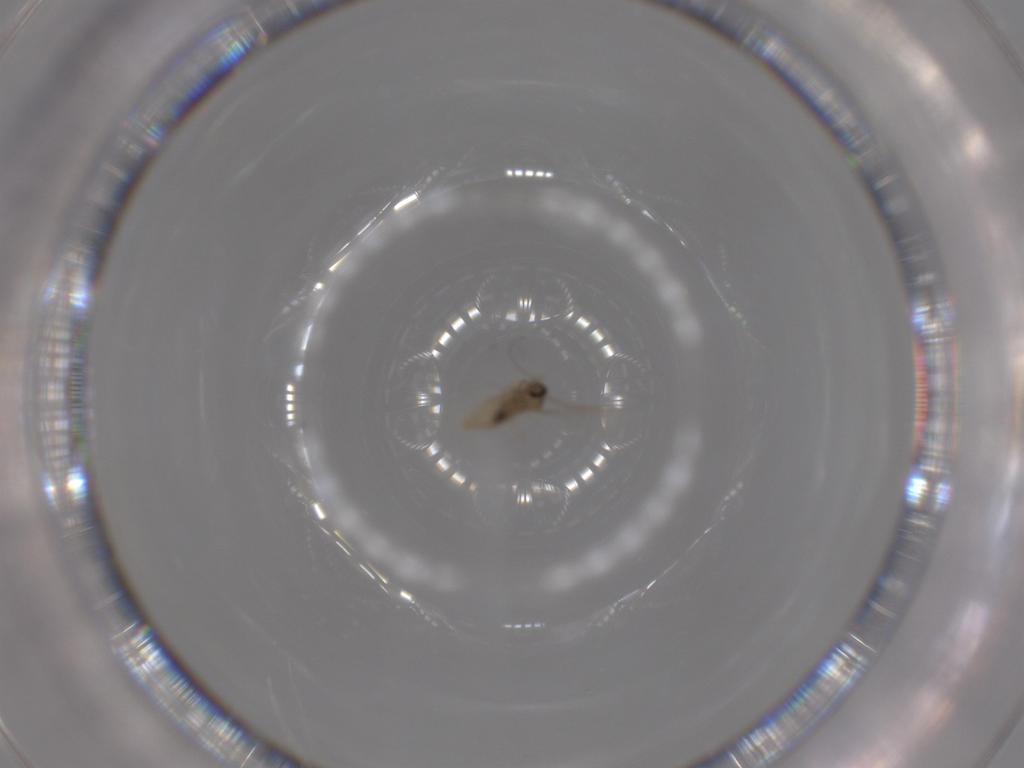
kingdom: Animalia
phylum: Arthropoda
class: Insecta
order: Diptera
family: Cecidomyiidae
